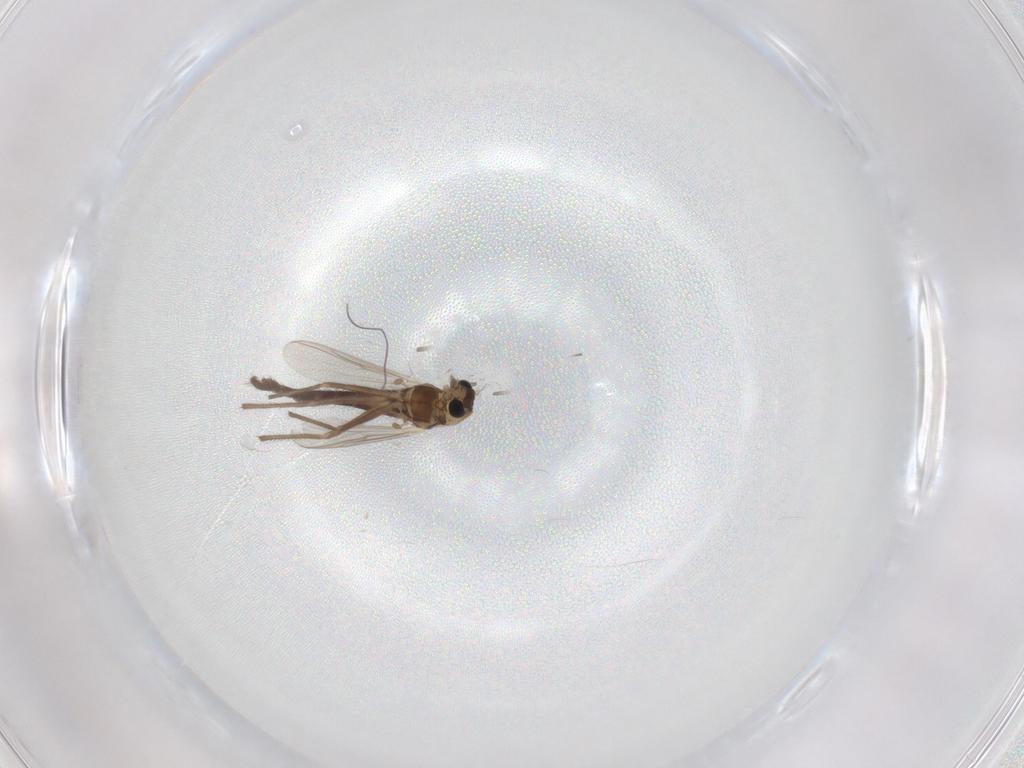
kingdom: Animalia
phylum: Arthropoda
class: Insecta
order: Diptera
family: Chironomidae
